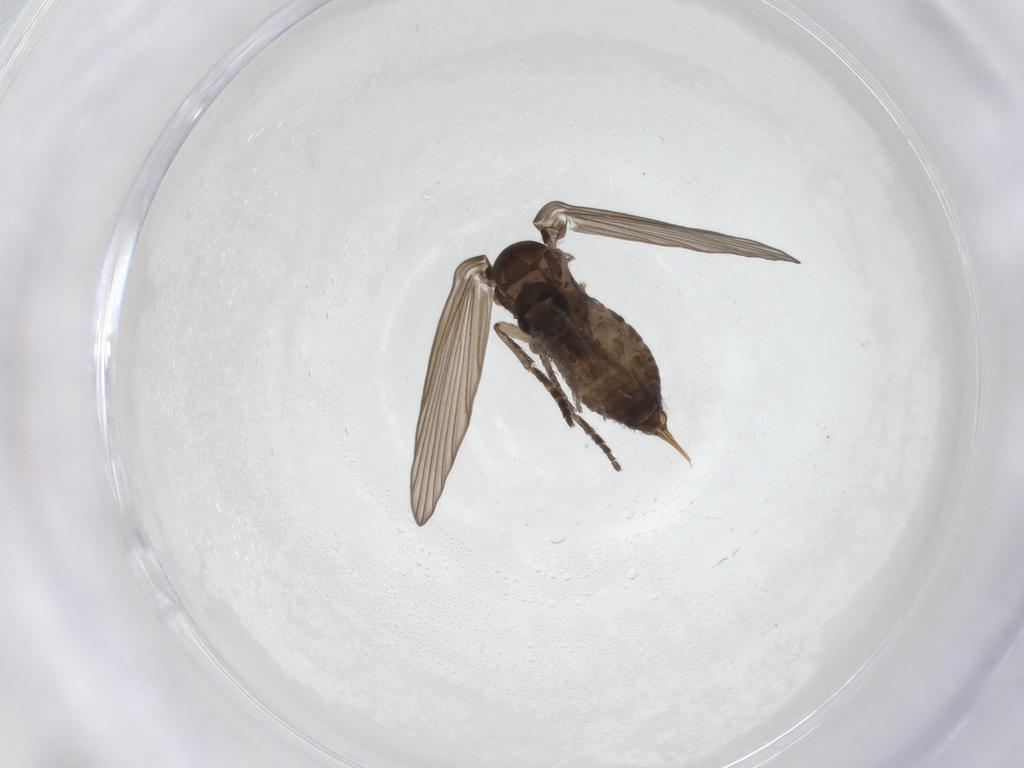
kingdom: Animalia
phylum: Arthropoda
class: Insecta
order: Diptera
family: Psychodidae
